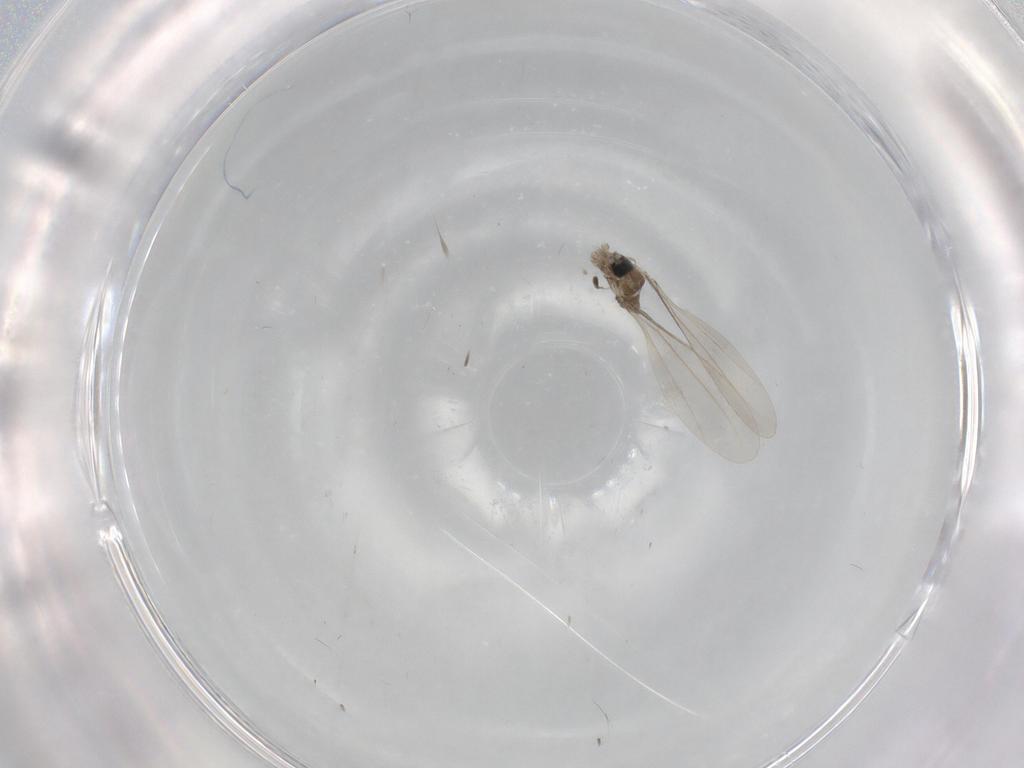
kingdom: Animalia
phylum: Arthropoda
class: Insecta
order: Diptera
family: Cecidomyiidae
